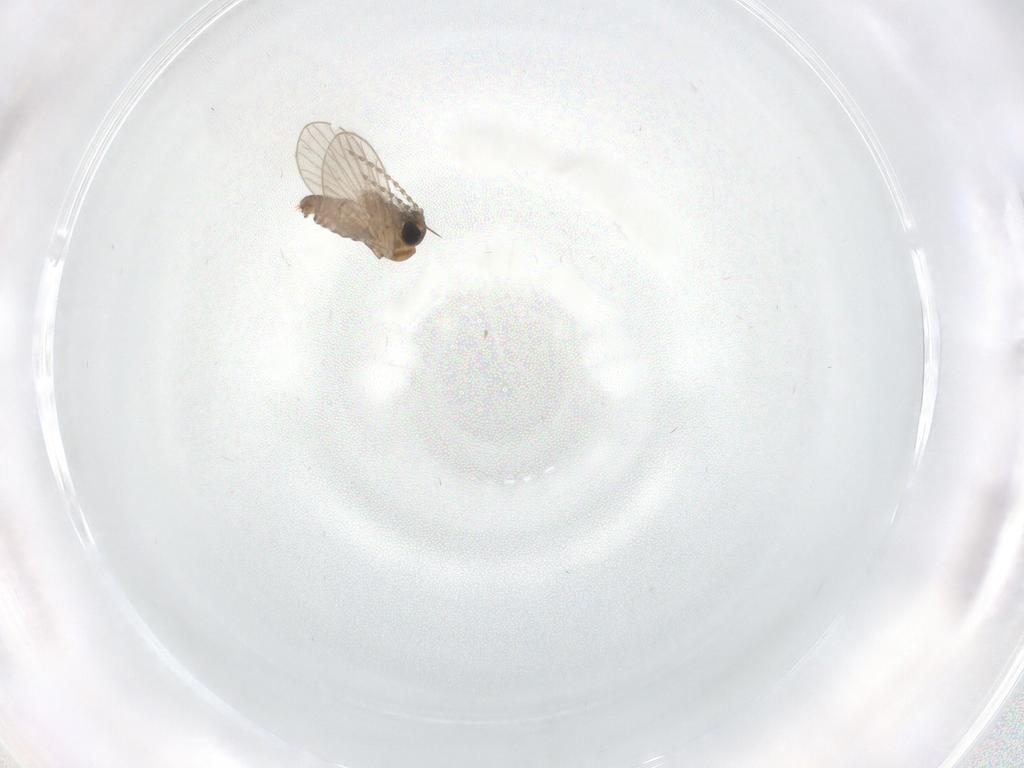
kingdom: Animalia
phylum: Arthropoda
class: Insecta
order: Diptera
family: Psychodidae
